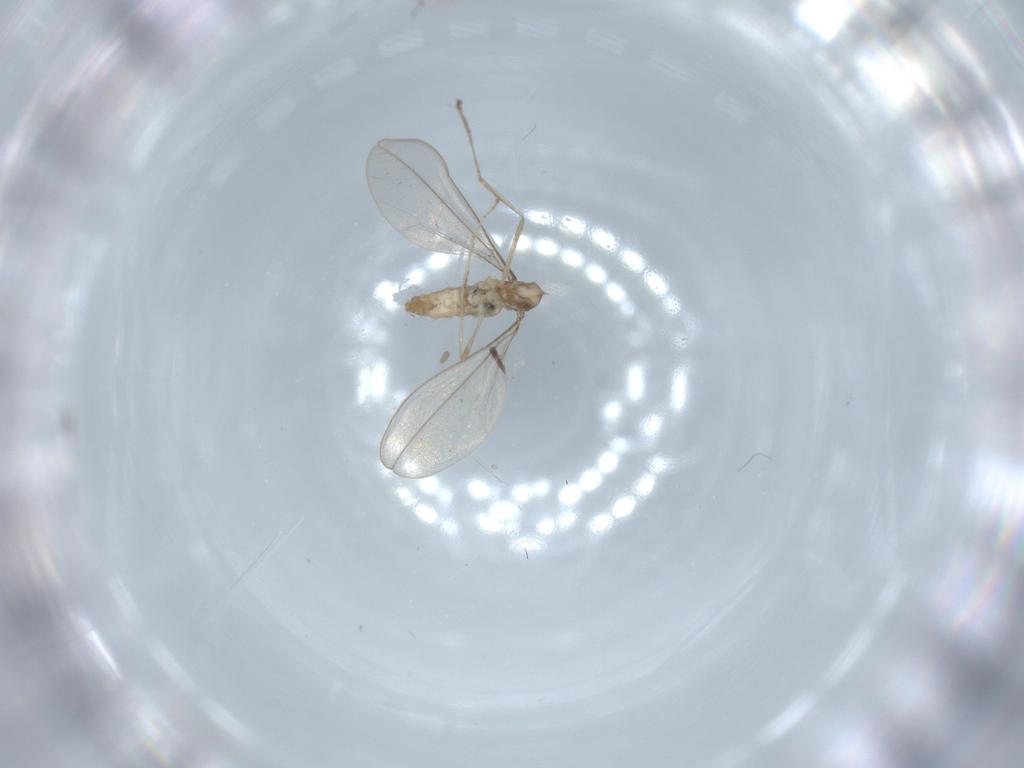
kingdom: Animalia
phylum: Arthropoda
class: Insecta
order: Diptera
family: Cecidomyiidae
